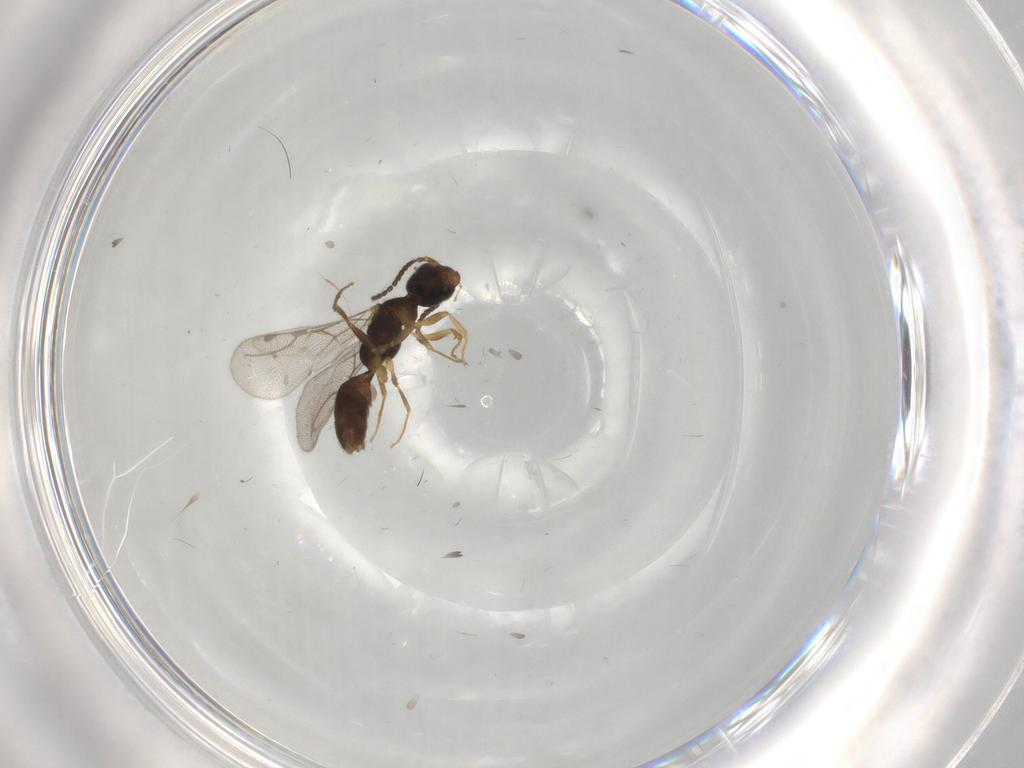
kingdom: Animalia
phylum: Arthropoda
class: Insecta
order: Hymenoptera
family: Bethylidae
